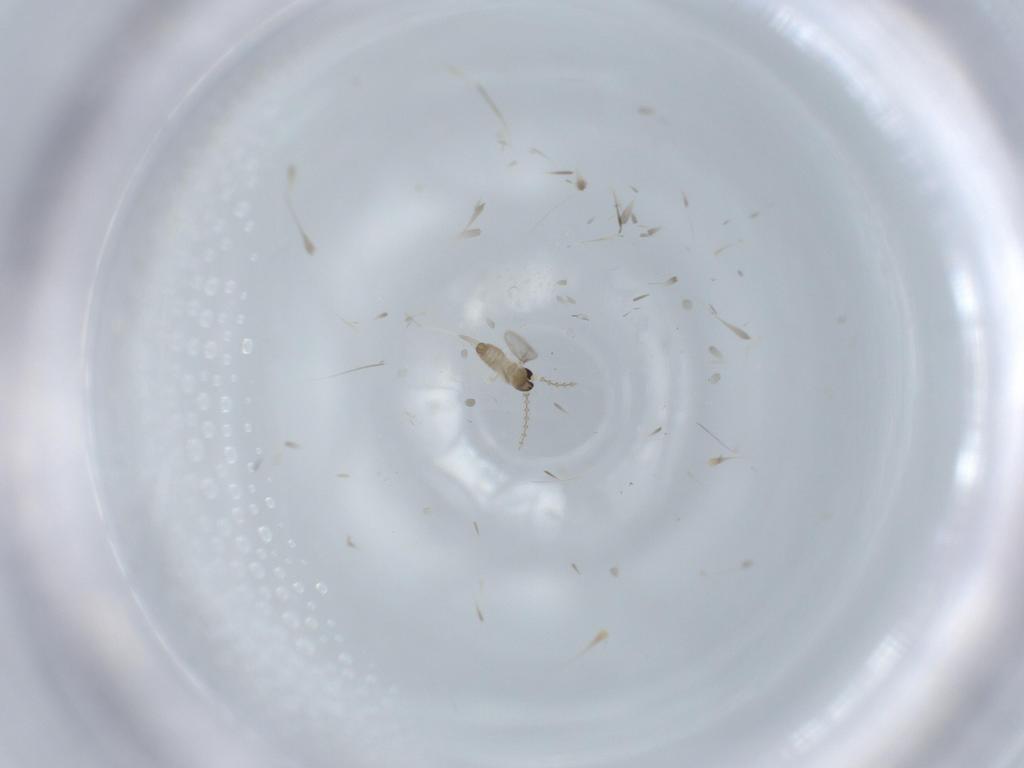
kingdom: Animalia
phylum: Arthropoda
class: Insecta
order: Diptera
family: Cecidomyiidae
